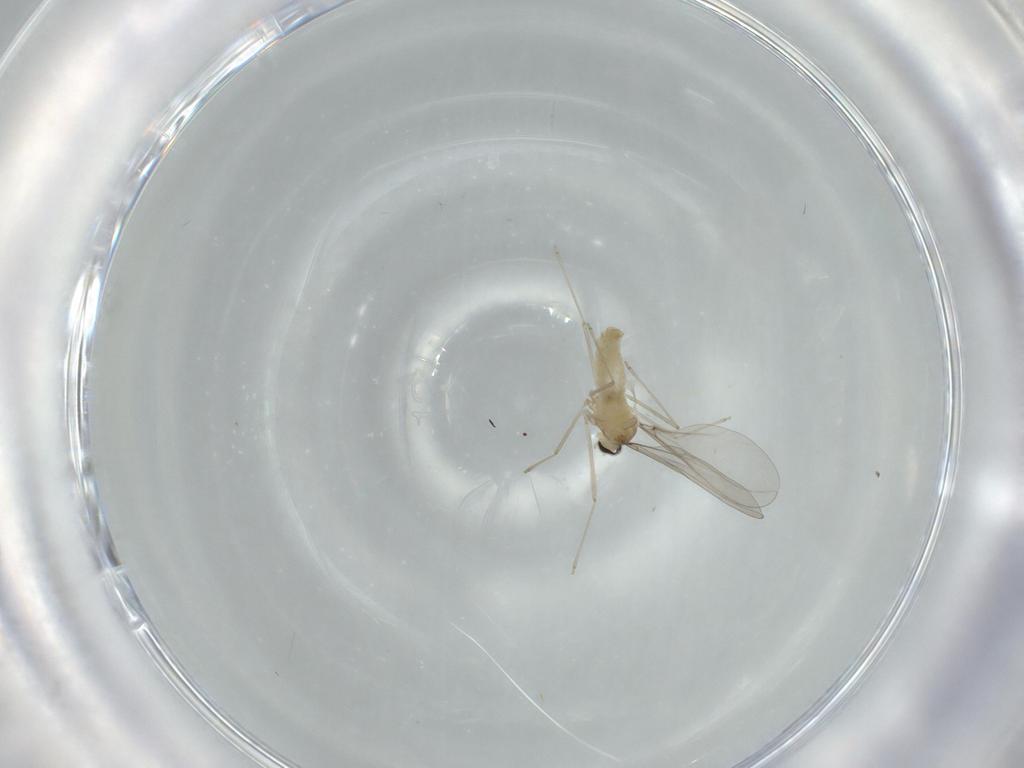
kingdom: Animalia
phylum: Arthropoda
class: Insecta
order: Diptera
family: Cecidomyiidae
